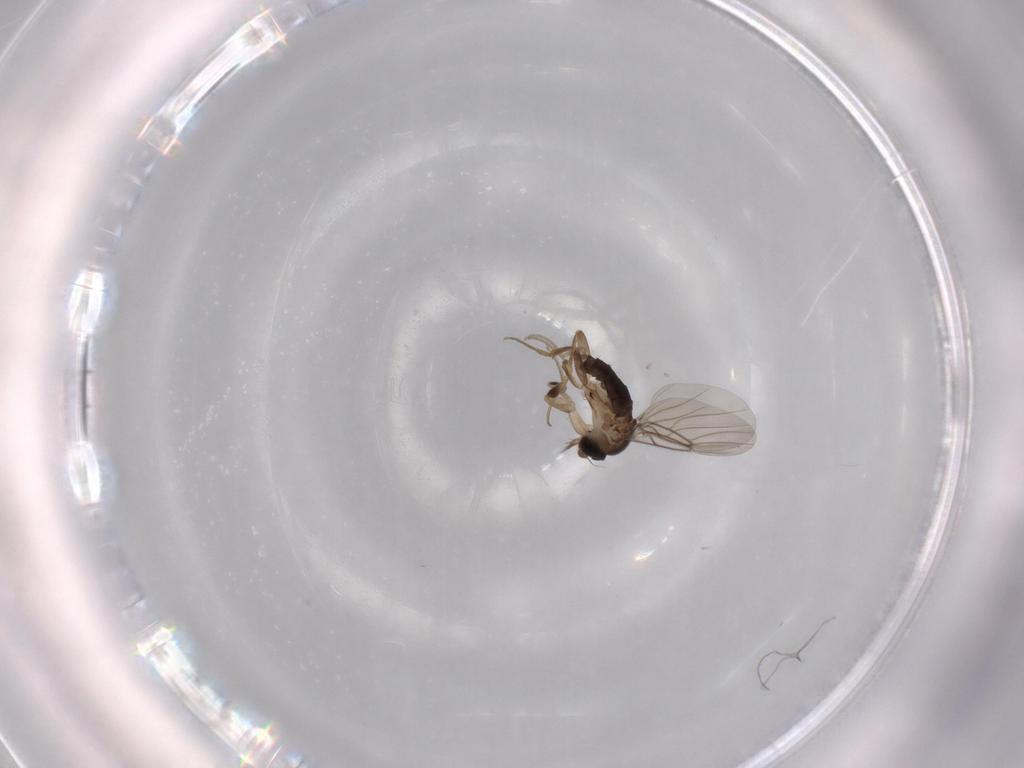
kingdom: Animalia
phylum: Arthropoda
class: Insecta
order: Diptera
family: Phoridae
